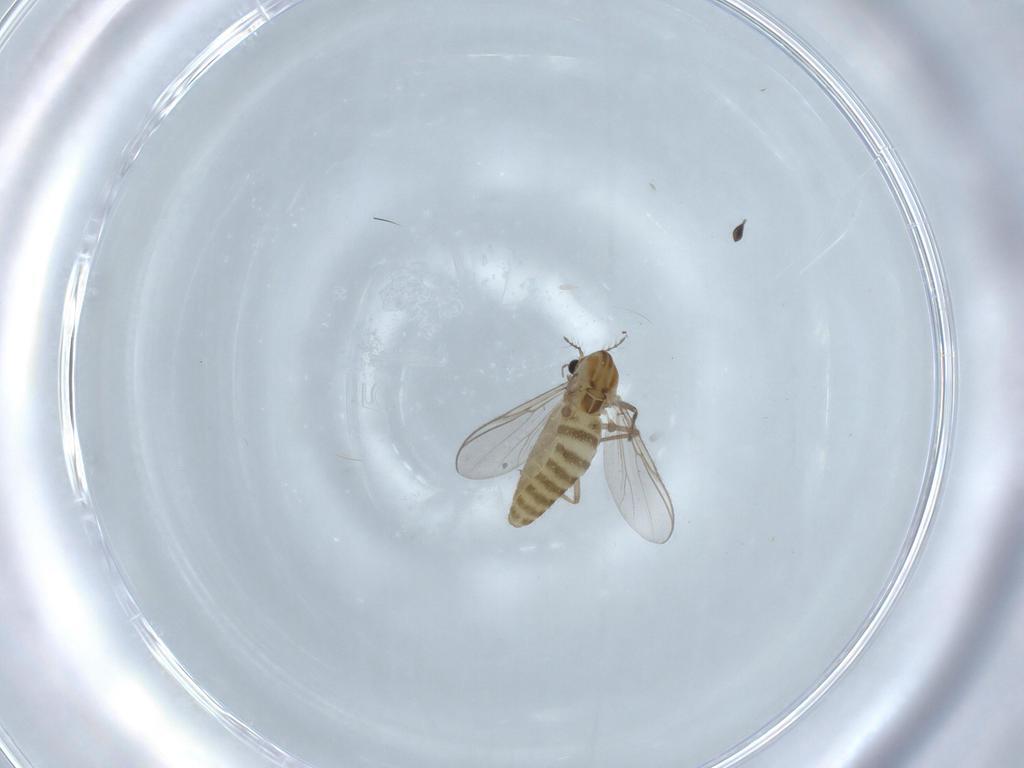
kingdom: Animalia
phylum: Arthropoda
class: Insecta
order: Diptera
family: Chironomidae
